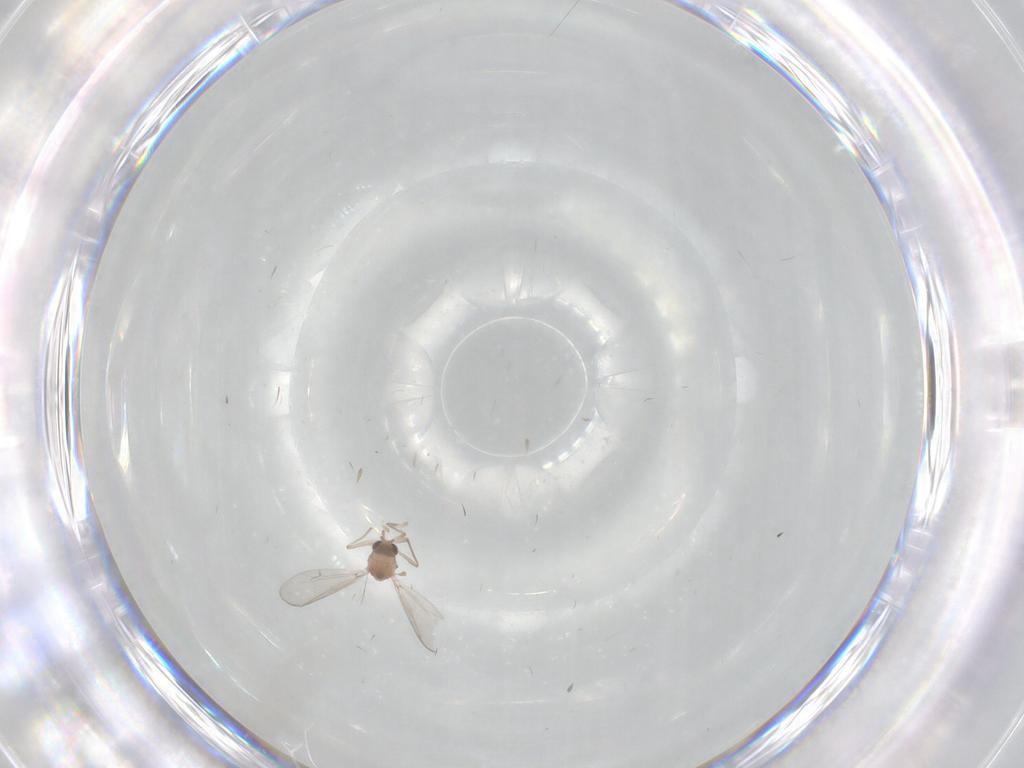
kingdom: Animalia
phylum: Arthropoda
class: Insecta
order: Diptera
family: Chironomidae
